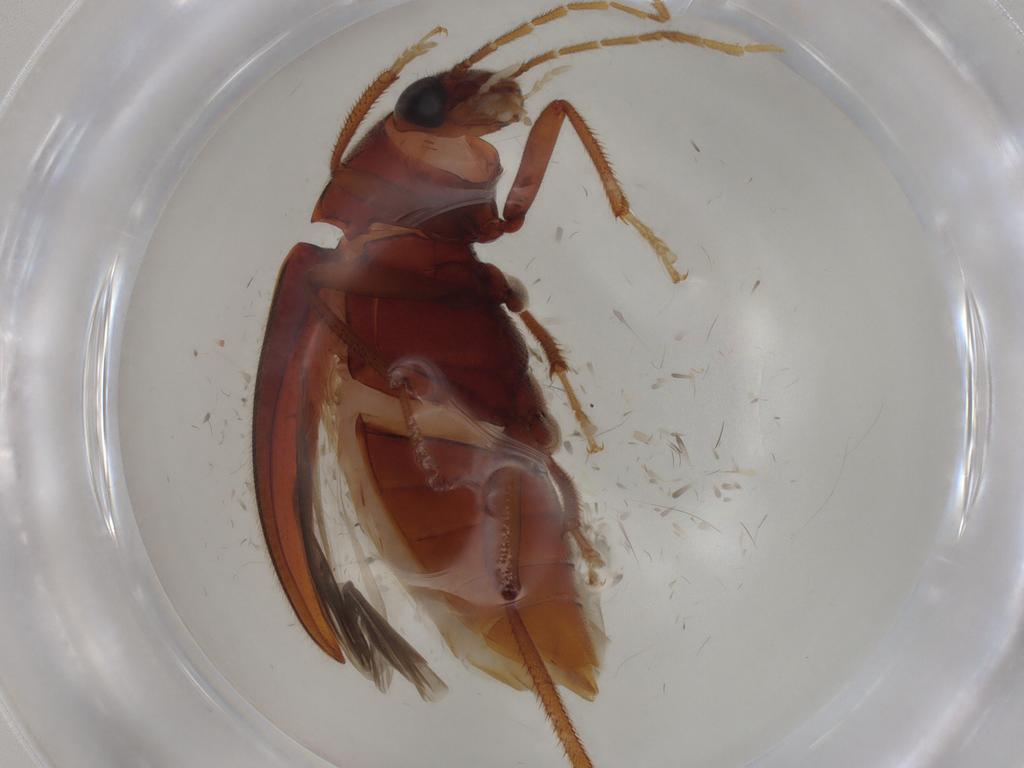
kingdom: Animalia
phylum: Arthropoda
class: Insecta
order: Coleoptera
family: Ptilodactylidae
